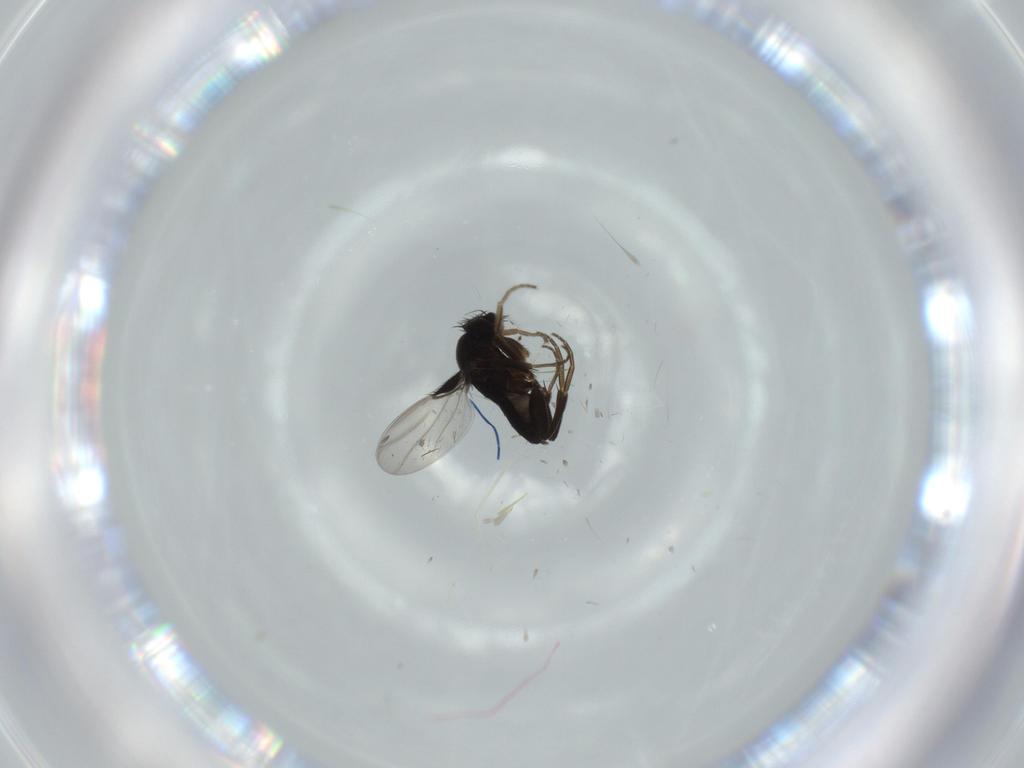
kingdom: Animalia
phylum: Arthropoda
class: Insecta
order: Diptera
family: Phoridae
